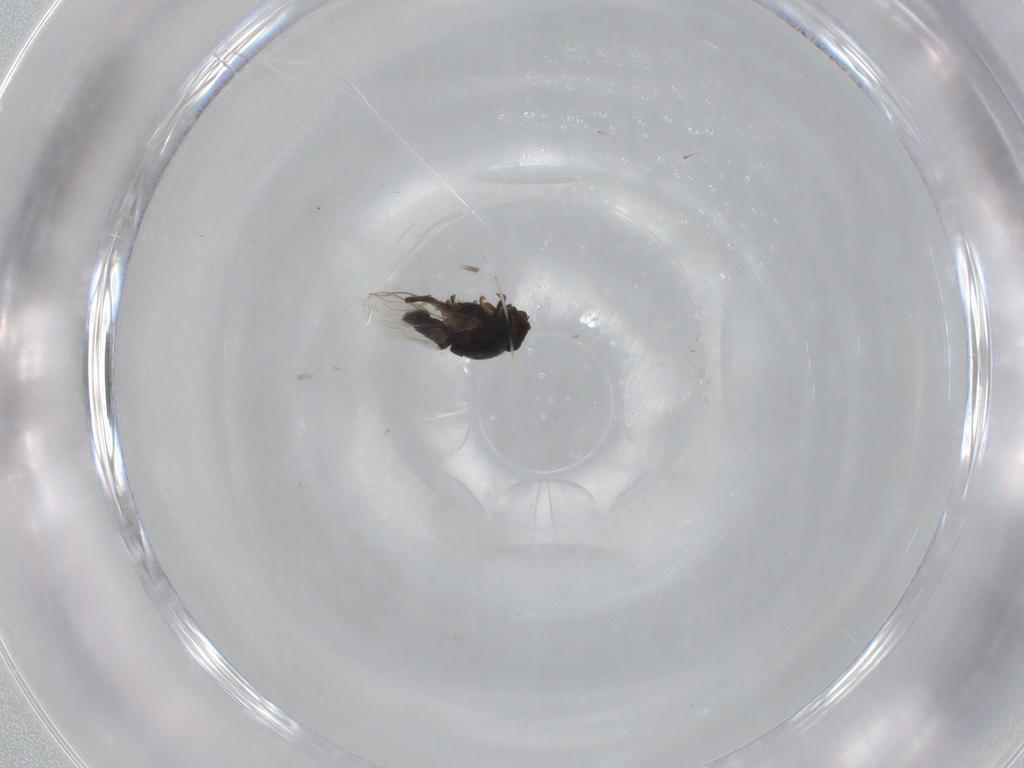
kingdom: Animalia
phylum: Arthropoda
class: Insecta
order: Diptera
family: Milichiidae
